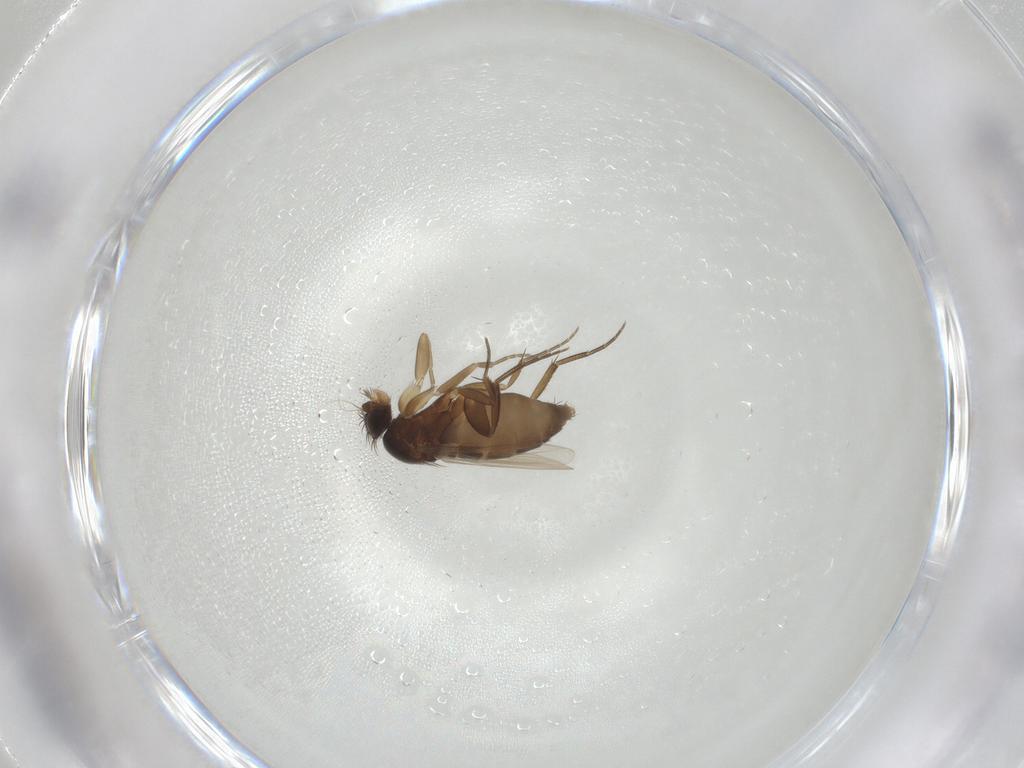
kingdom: Animalia
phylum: Arthropoda
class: Insecta
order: Diptera
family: Phoridae
